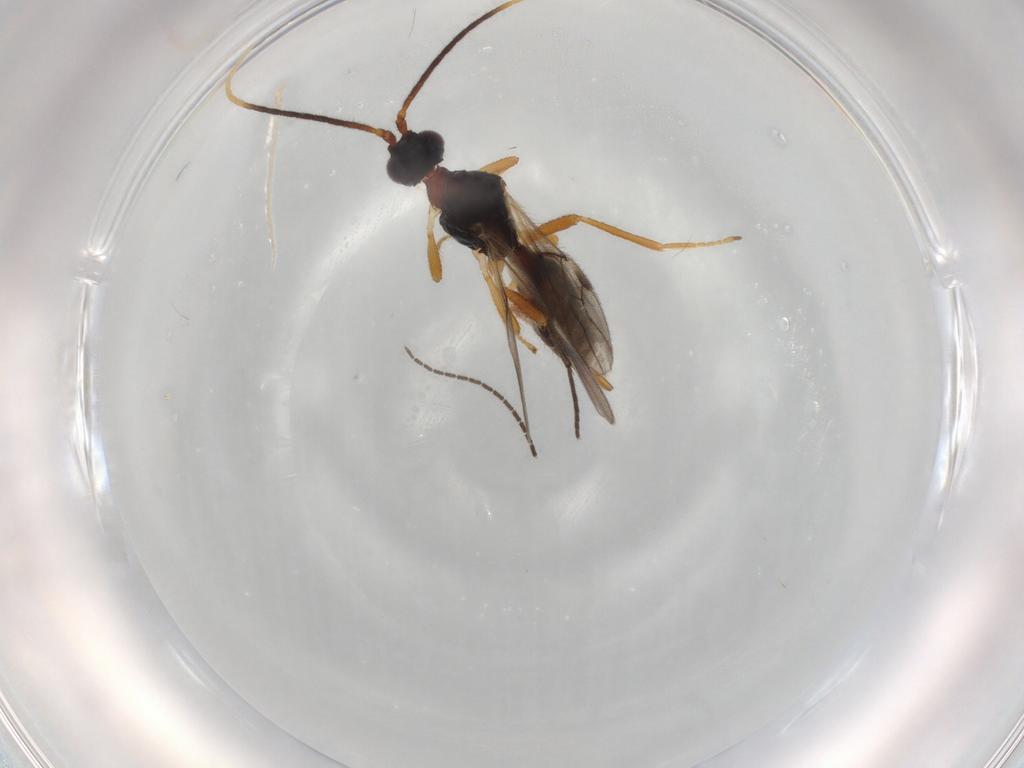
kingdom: Animalia
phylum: Arthropoda
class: Insecta
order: Hymenoptera
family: Braconidae
